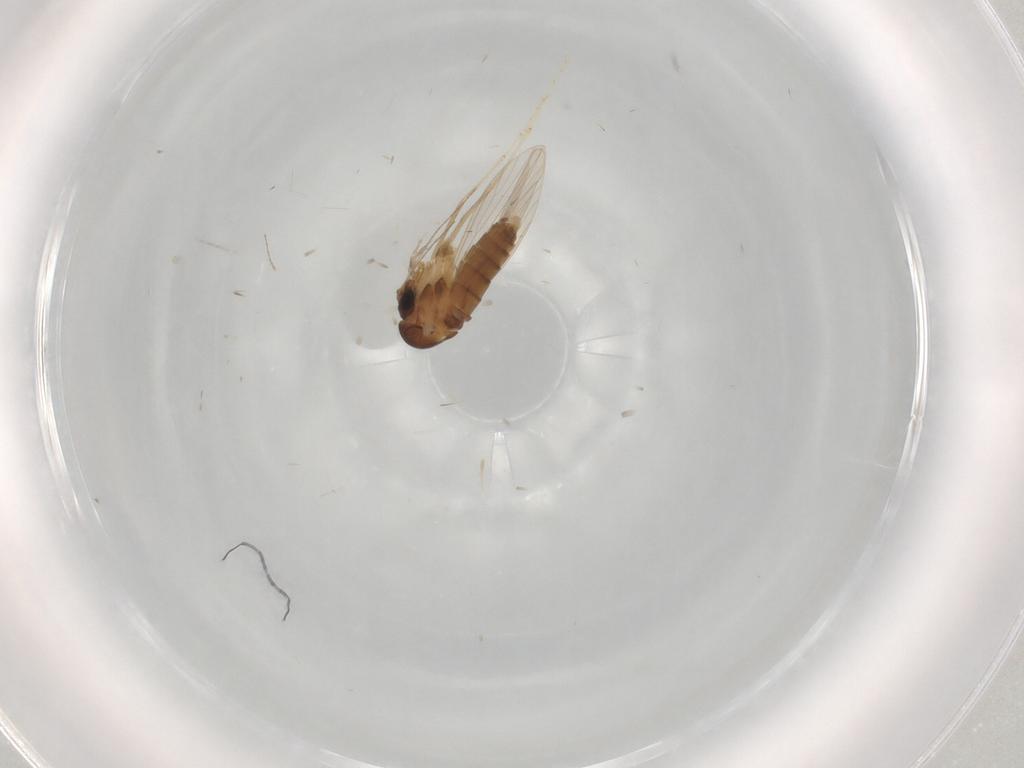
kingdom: Animalia
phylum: Arthropoda
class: Insecta
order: Diptera
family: Psychodidae
